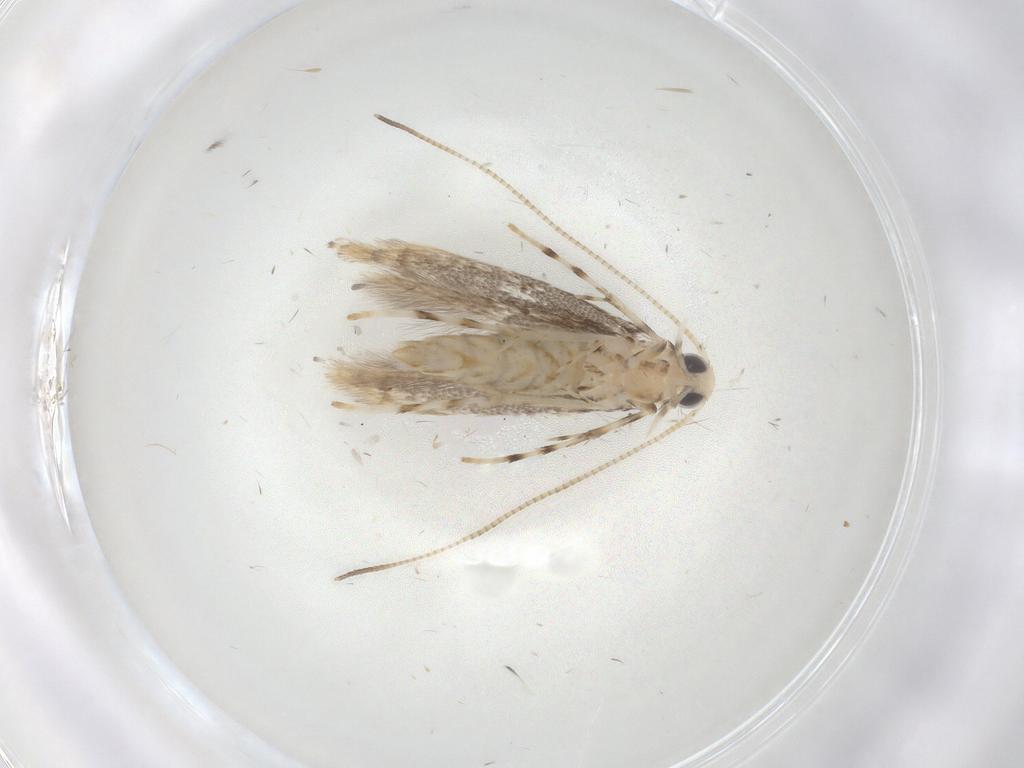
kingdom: Animalia
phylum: Arthropoda
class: Insecta
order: Lepidoptera
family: Gracillariidae
